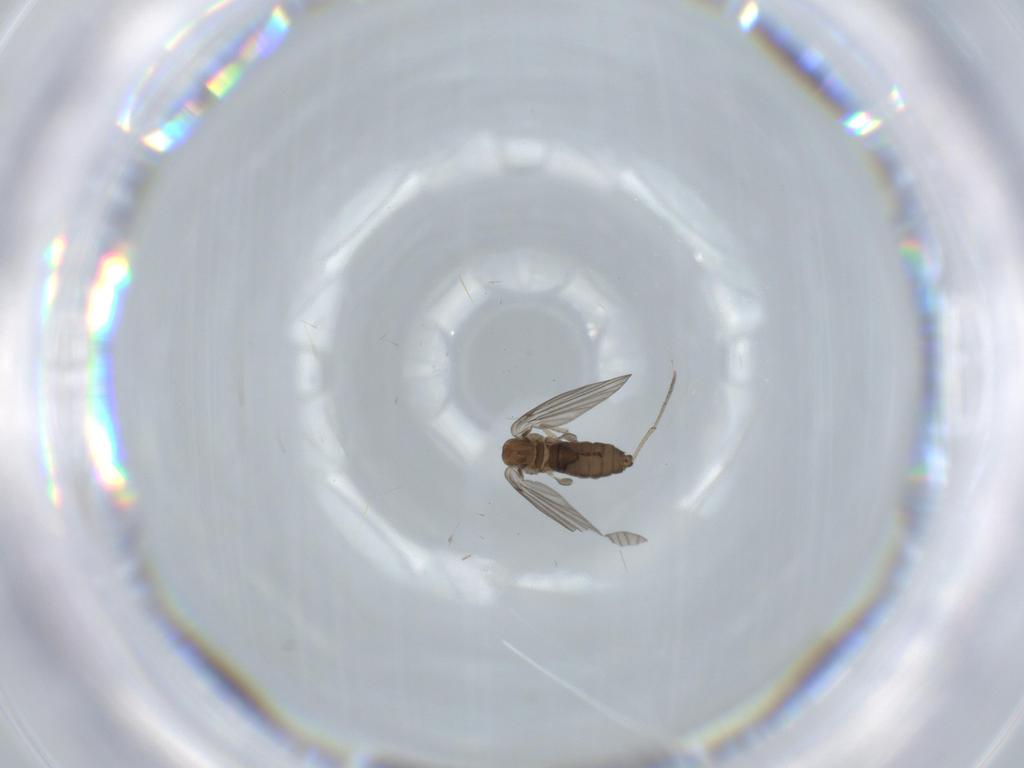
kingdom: Animalia
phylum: Arthropoda
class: Insecta
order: Diptera
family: Psychodidae
